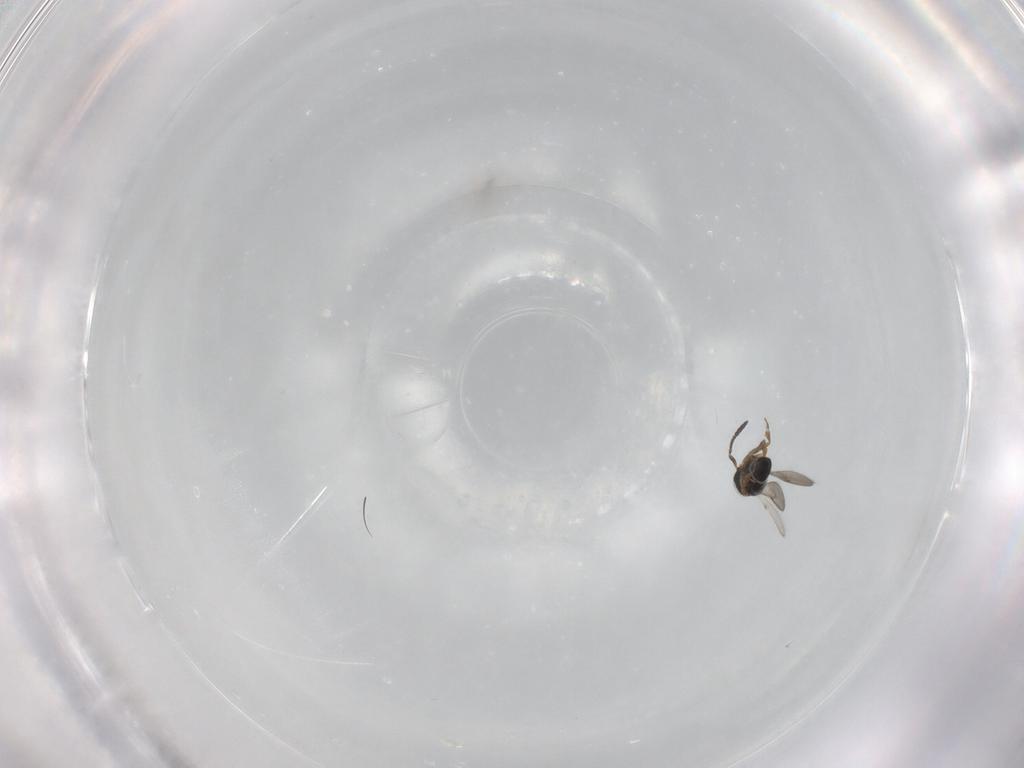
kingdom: Animalia
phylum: Arthropoda
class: Insecta
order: Hymenoptera
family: Scelionidae
